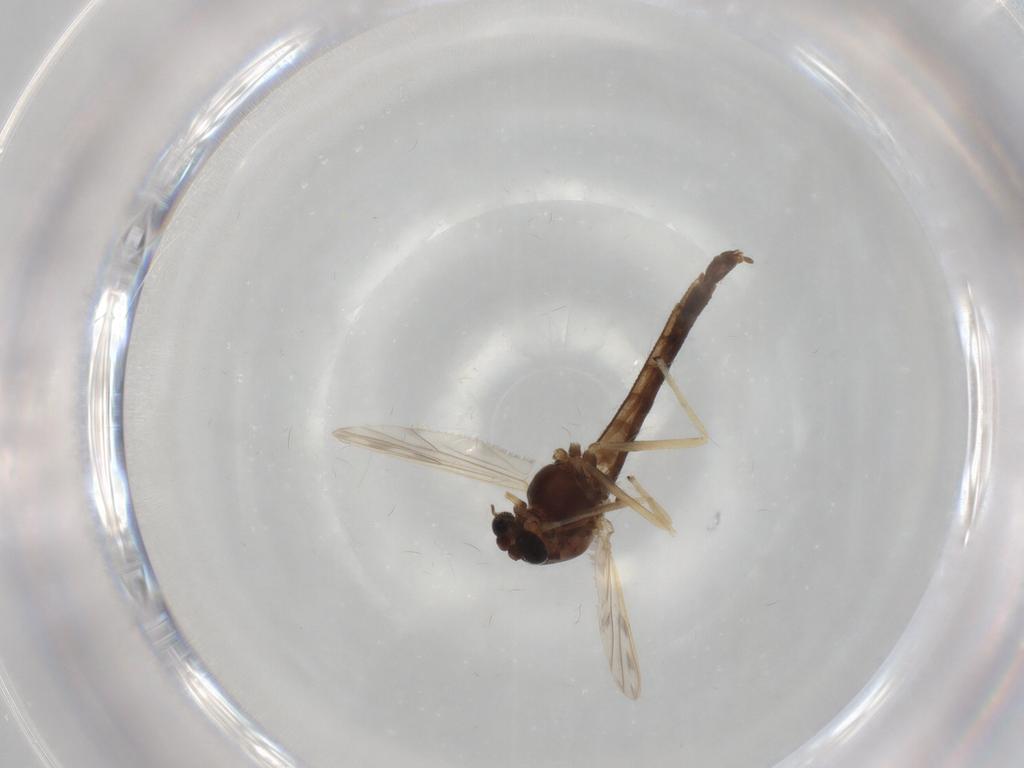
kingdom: Animalia
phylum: Arthropoda
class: Insecta
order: Diptera
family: Chironomidae
